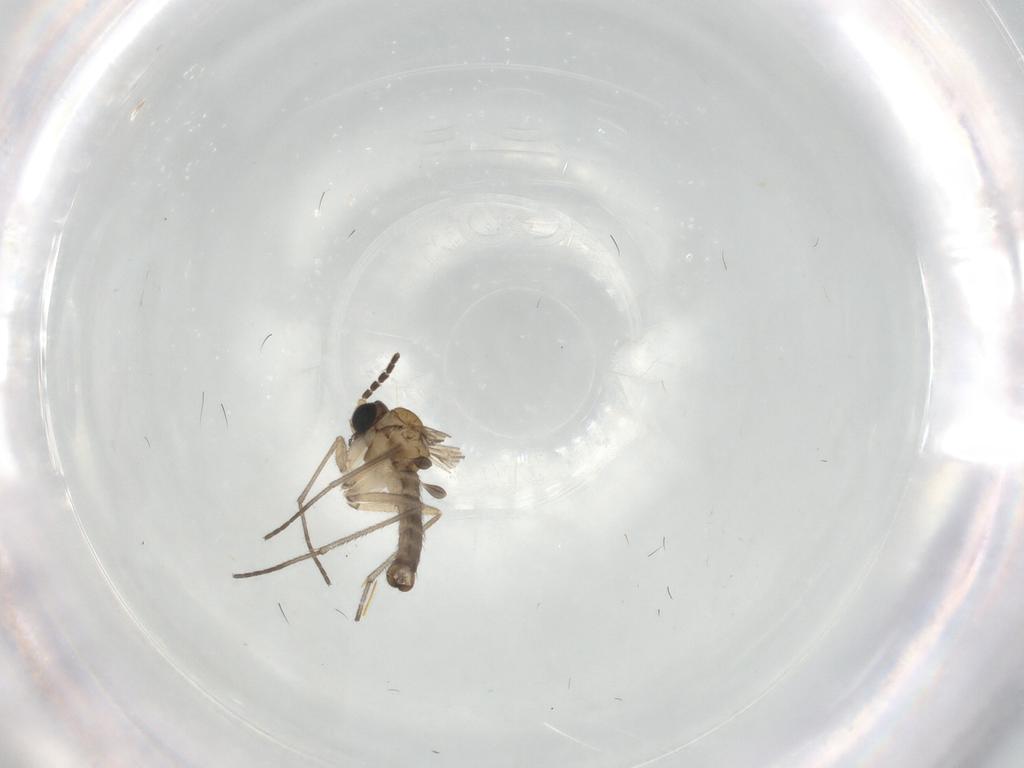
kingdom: Animalia
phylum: Arthropoda
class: Insecta
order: Diptera
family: Sciaridae
